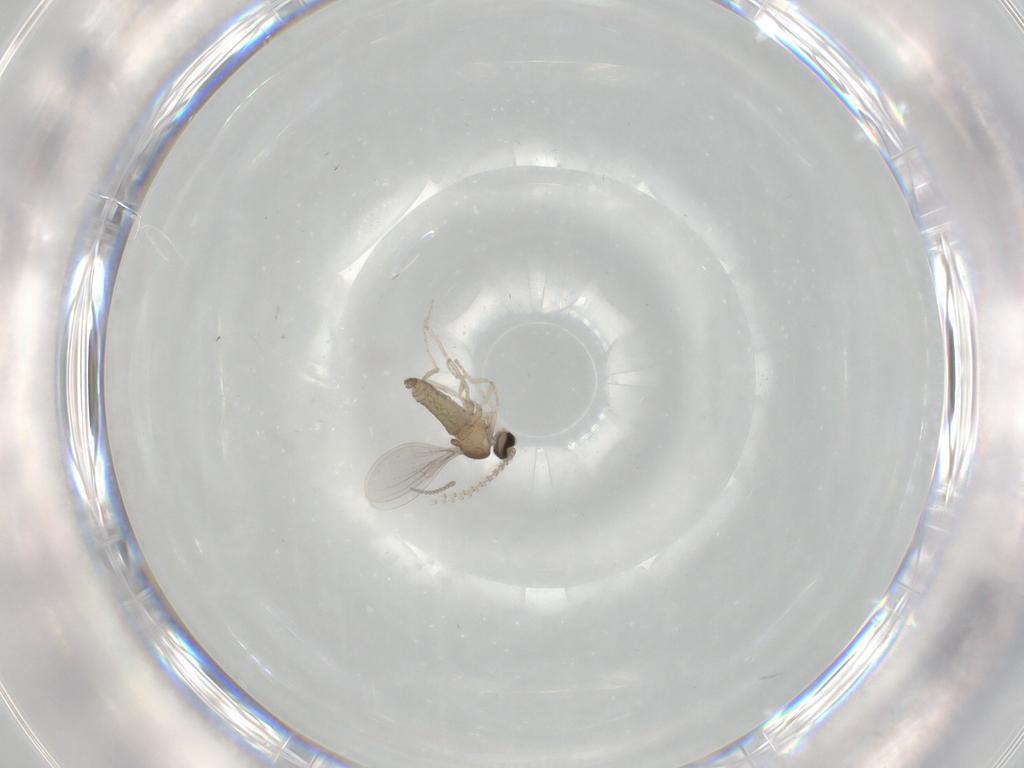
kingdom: Animalia
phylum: Arthropoda
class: Insecta
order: Diptera
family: Cecidomyiidae
